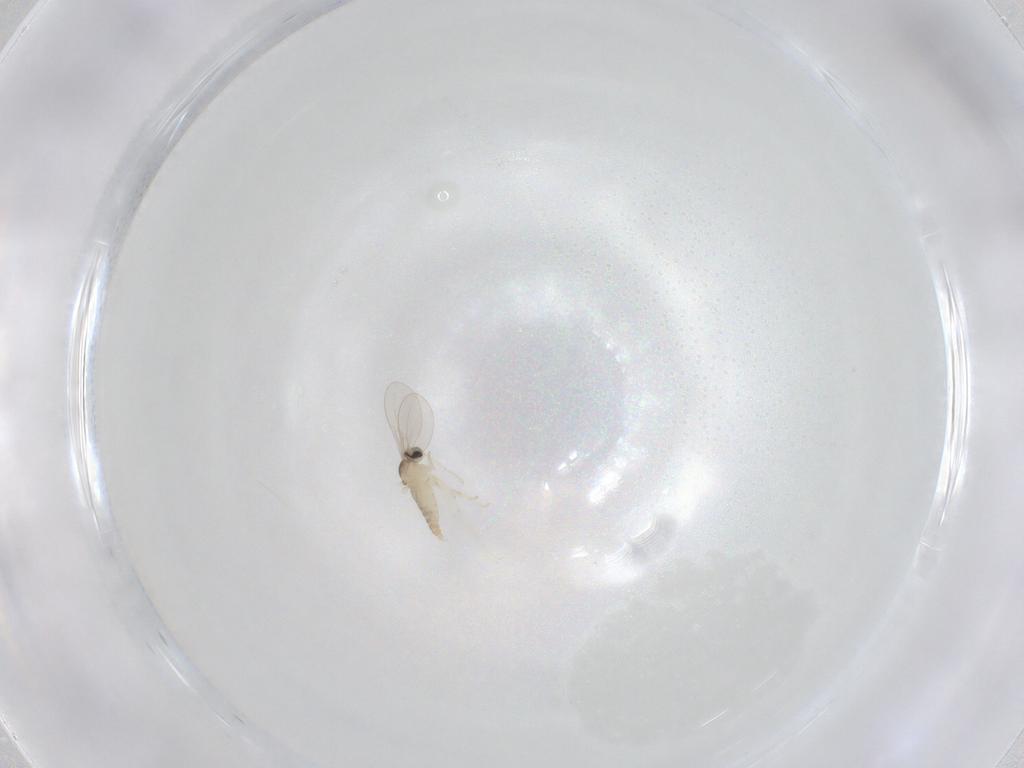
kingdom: Animalia
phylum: Arthropoda
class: Insecta
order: Diptera
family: Cecidomyiidae
